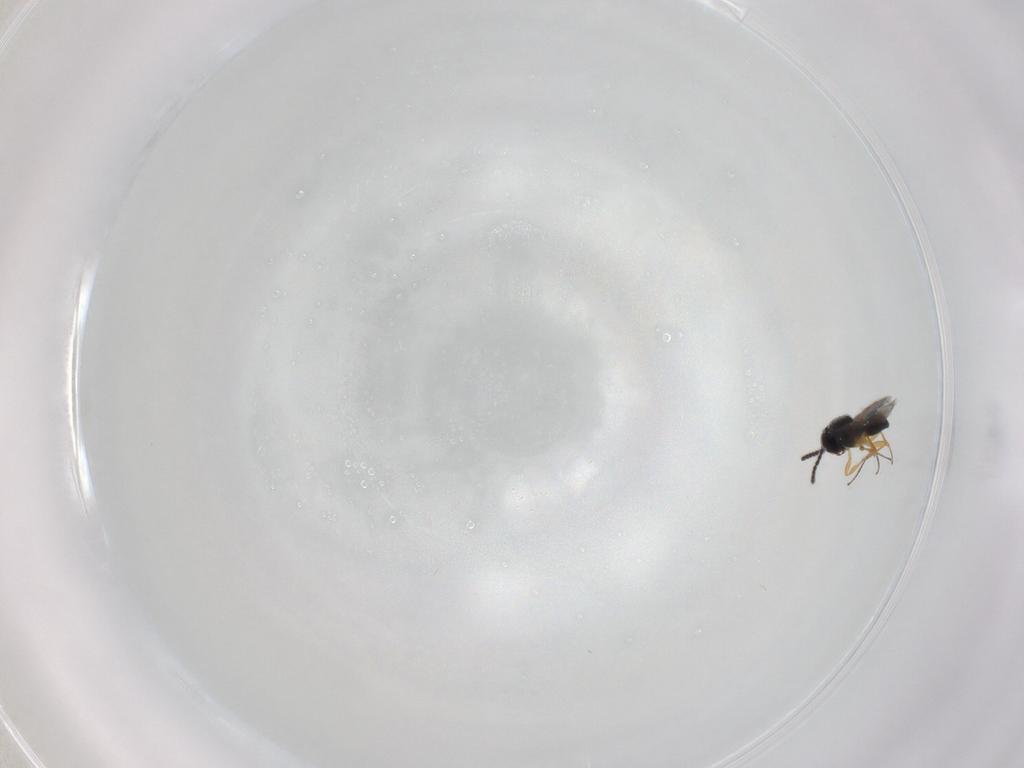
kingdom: Animalia
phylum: Arthropoda
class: Insecta
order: Hymenoptera
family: Scelionidae
